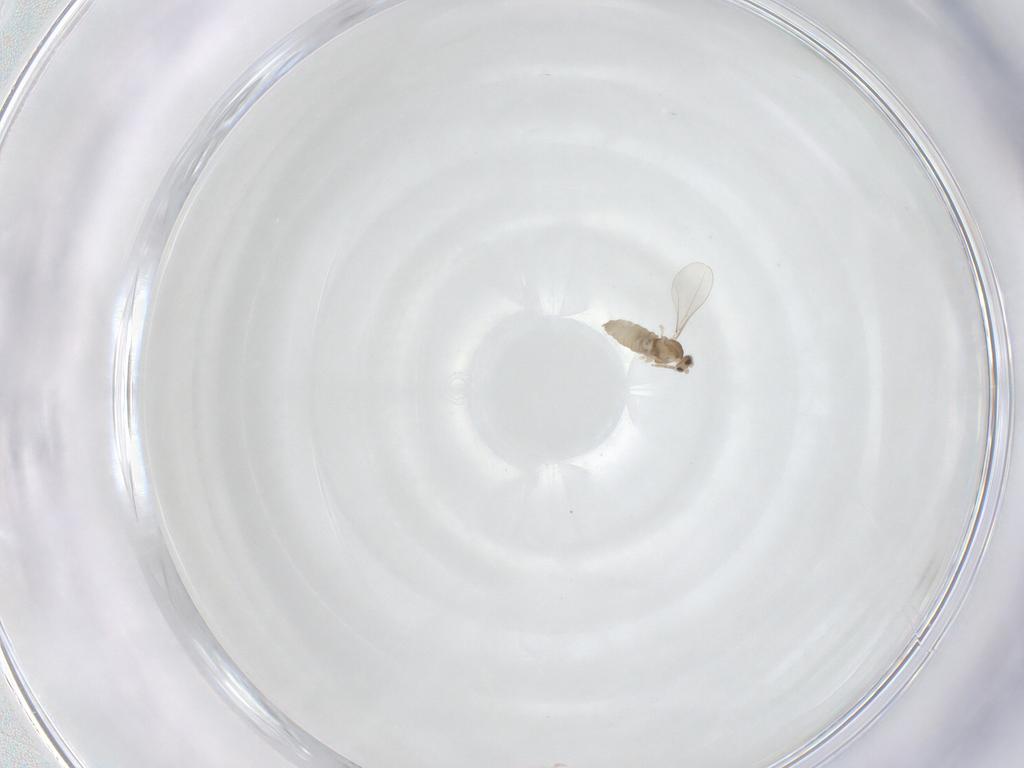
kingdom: Animalia
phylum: Arthropoda
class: Insecta
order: Diptera
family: Cecidomyiidae
